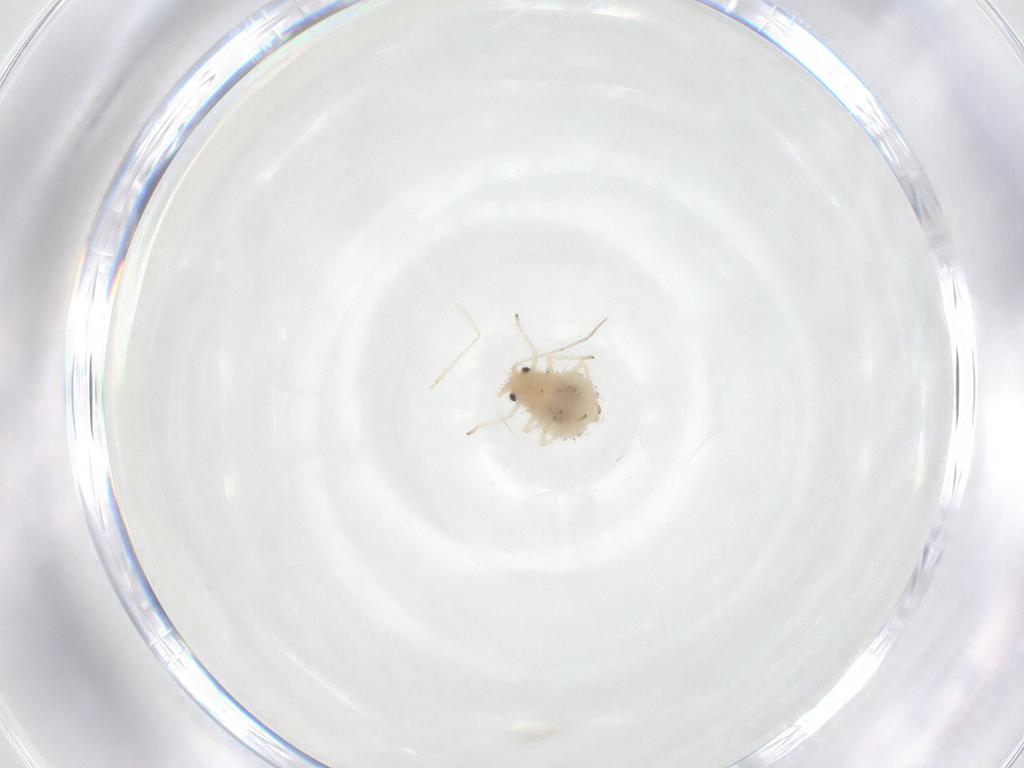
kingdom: Animalia
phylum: Arthropoda
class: Insecta
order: Hemiptera
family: Aphididae
